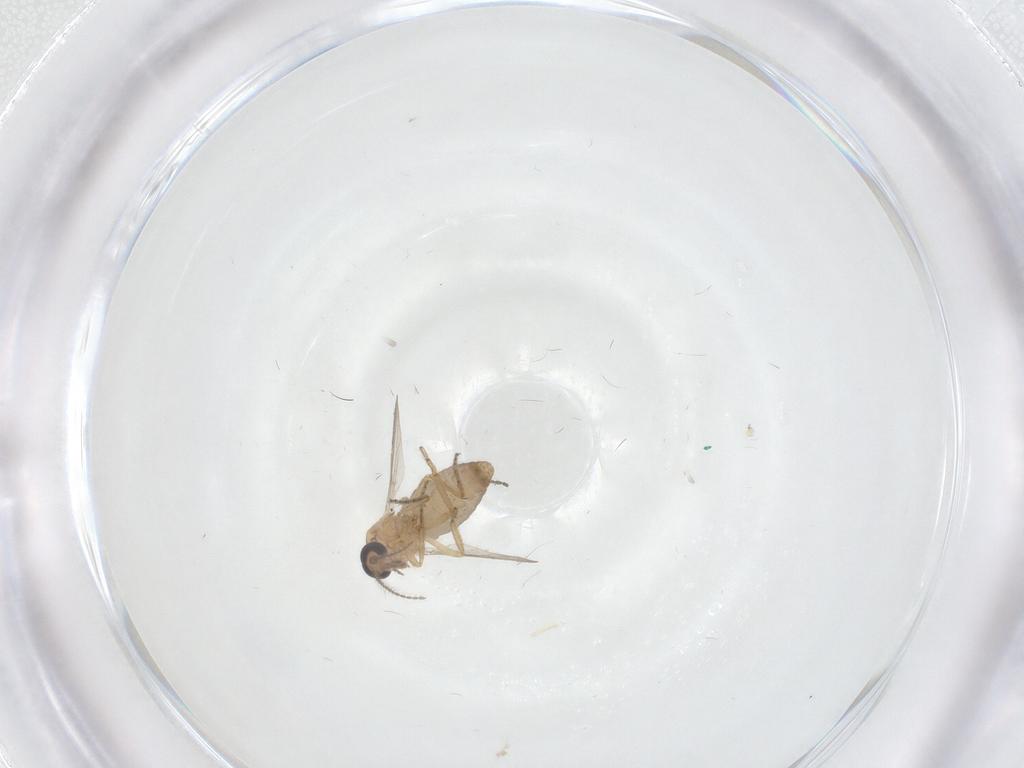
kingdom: Animalia
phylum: Arthropoda
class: Insecta
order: Diptera
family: Ceratopogonidae
